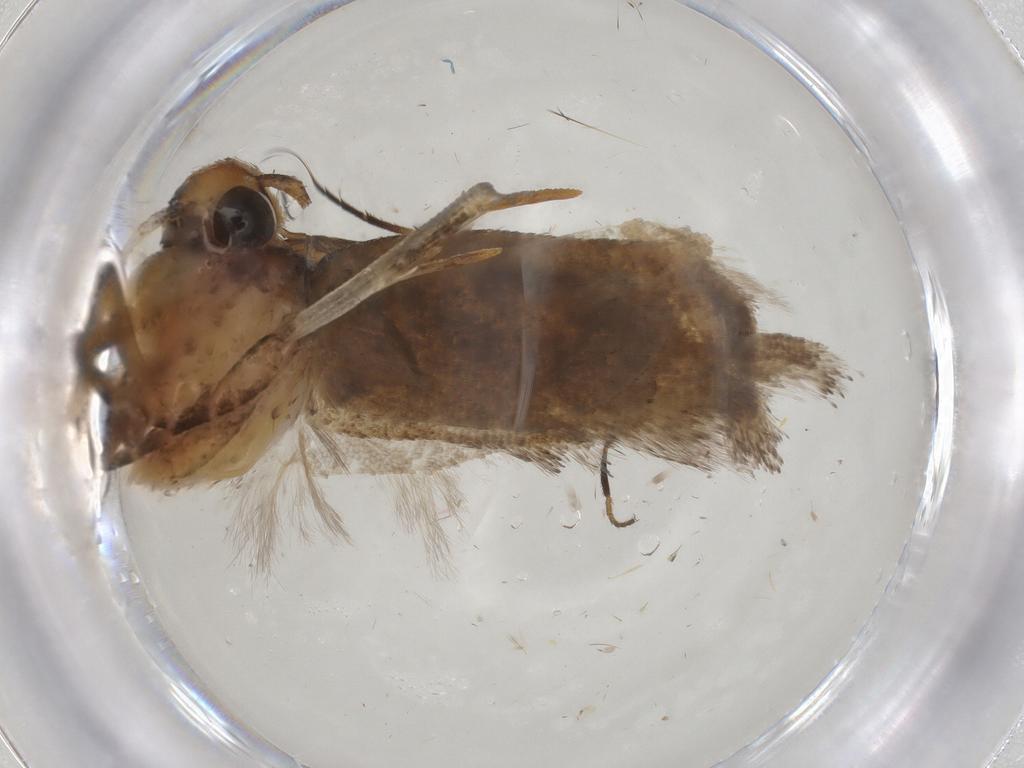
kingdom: Animalia
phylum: Arthropoda
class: Insecta
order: Lepidoptera
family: Gelechiidae
